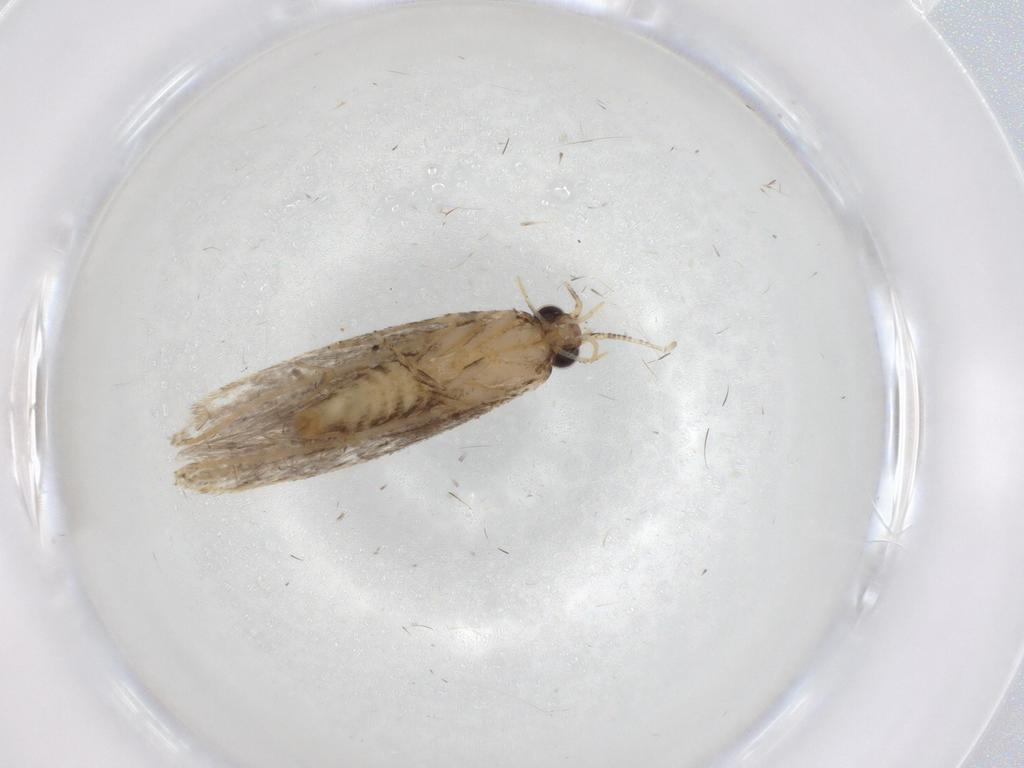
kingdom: Animalia
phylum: Arthropoda
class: Insecta
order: Lepidoptera
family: Tineidae
